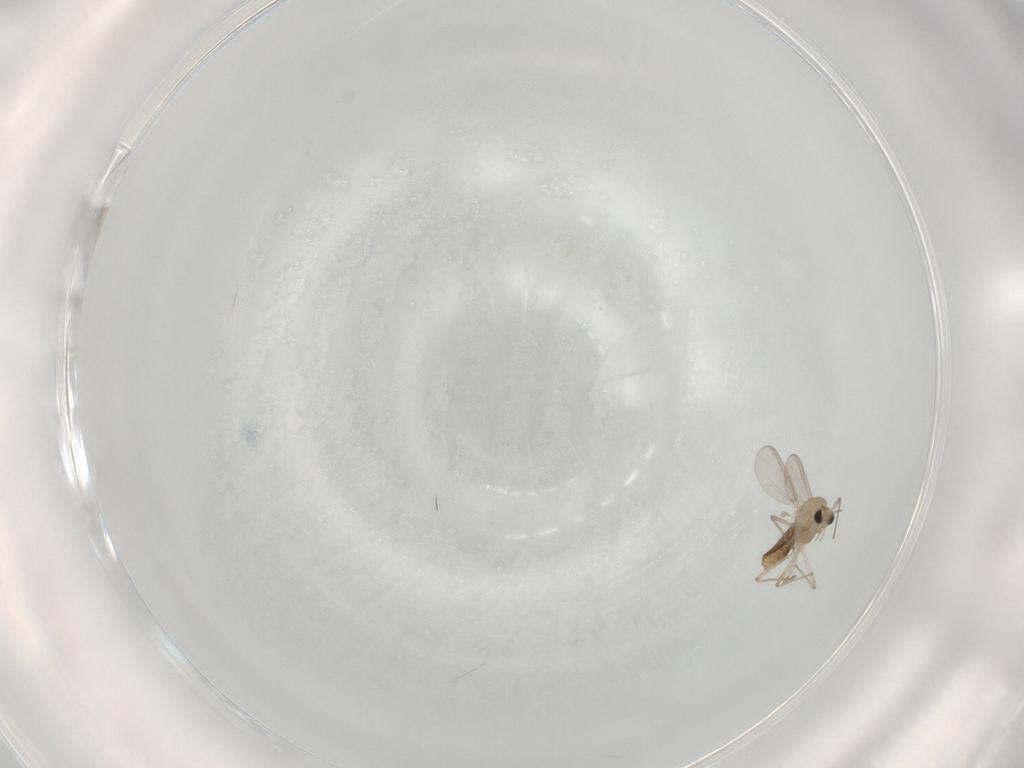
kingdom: Animalia
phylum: Arthropoda
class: Insecta
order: Diptera
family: Chironomidae
